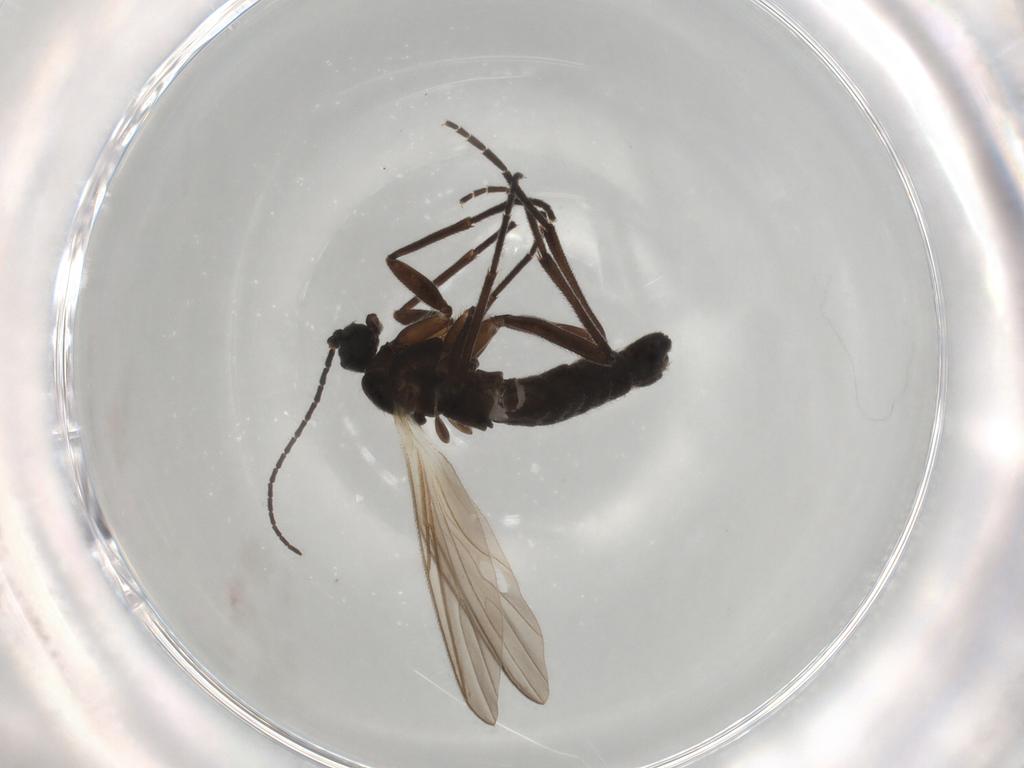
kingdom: Animalia
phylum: Arthropoda
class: Insecta
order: Diptera
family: Sciaridae
